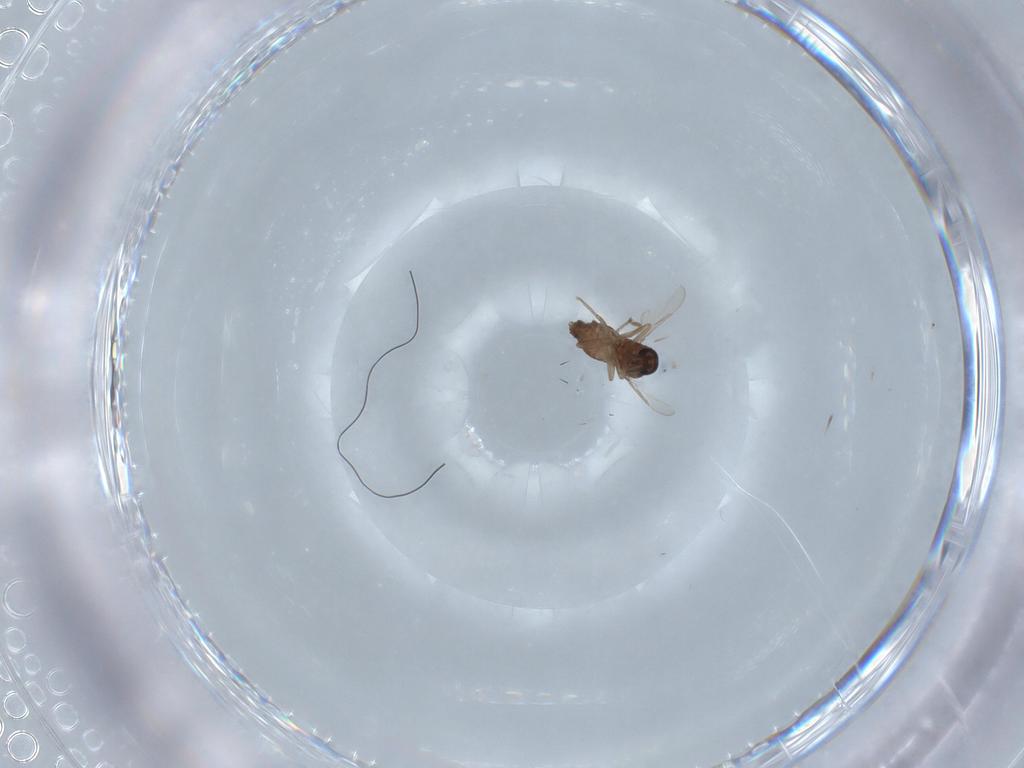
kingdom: Animalia
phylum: Arthropoda
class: Insecta
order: Diptera
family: Ceratopogonidae
